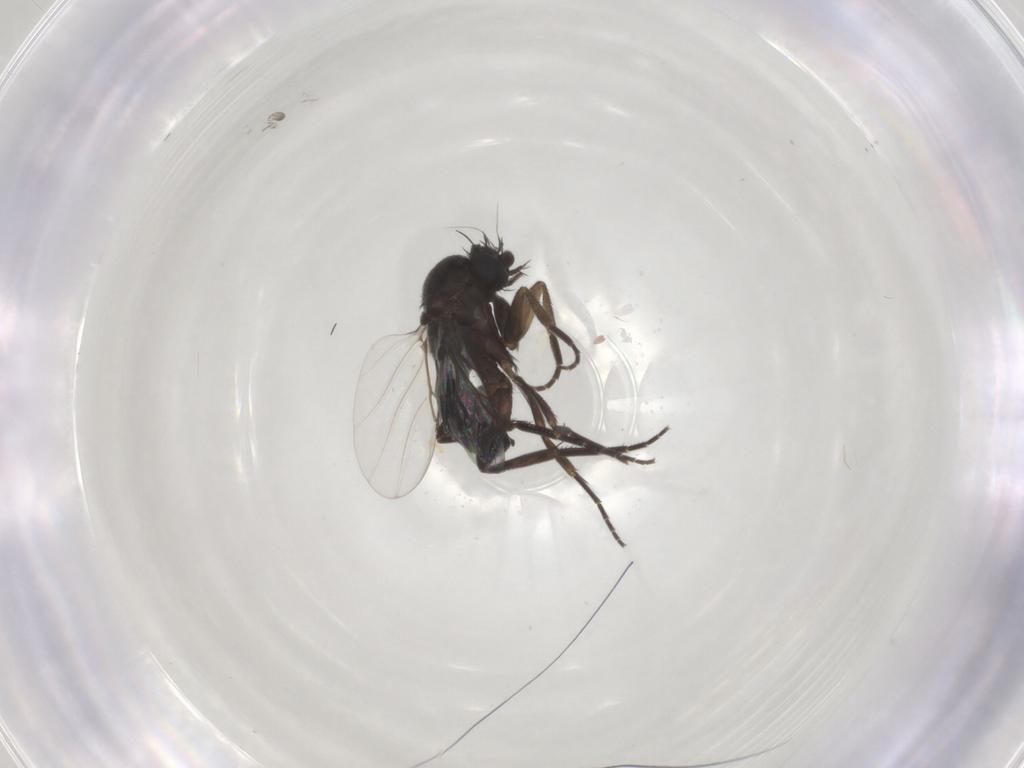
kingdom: Animalia
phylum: Arthropoda
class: Insecta
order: Diptera
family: Phoridae
